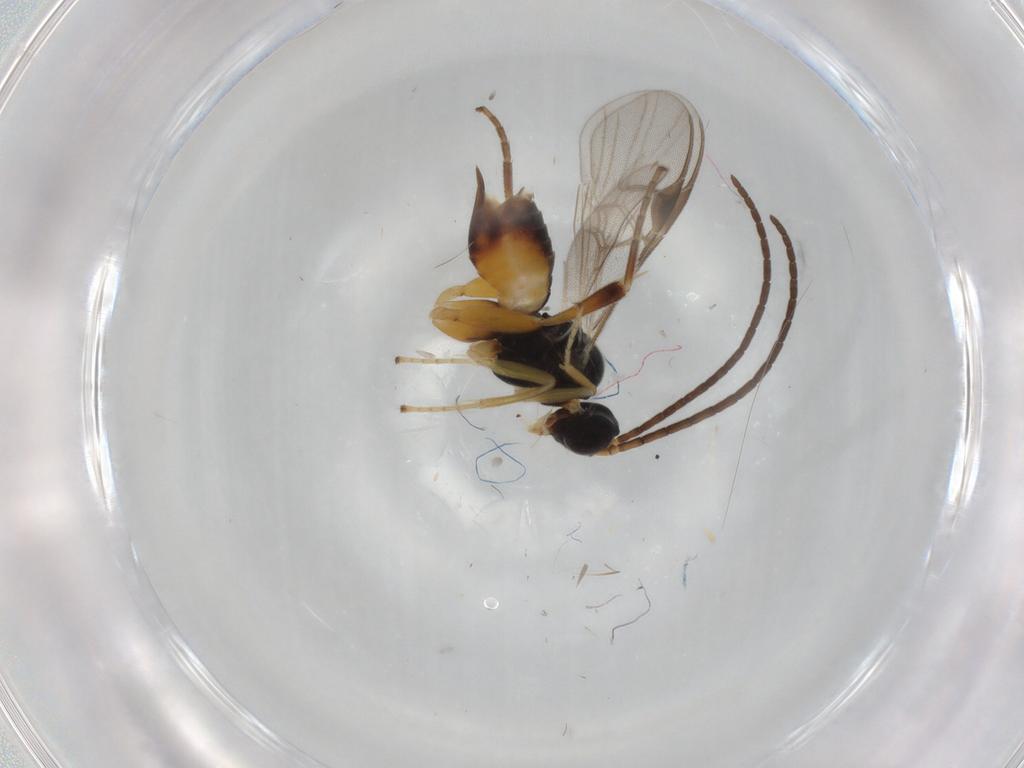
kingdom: Animalia
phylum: Arthropoda
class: Insecta
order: Hymenoptera
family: Braconidae
